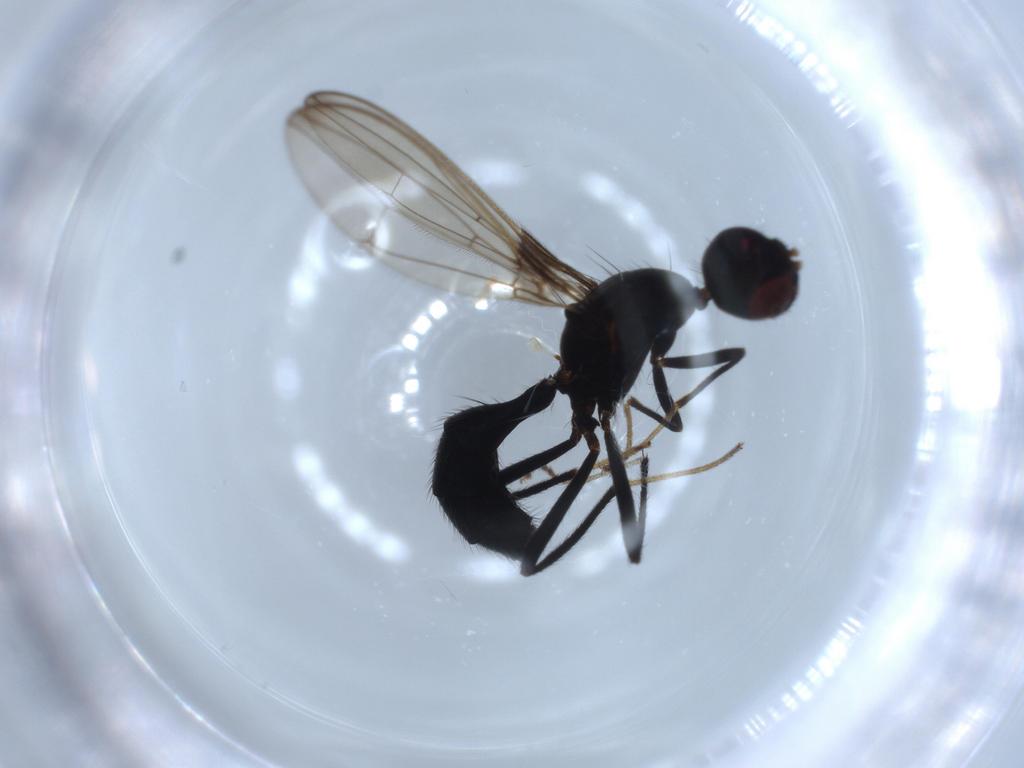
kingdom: Animalia
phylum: Arthropoda
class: Insecta
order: Diptera
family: Richardiidae
